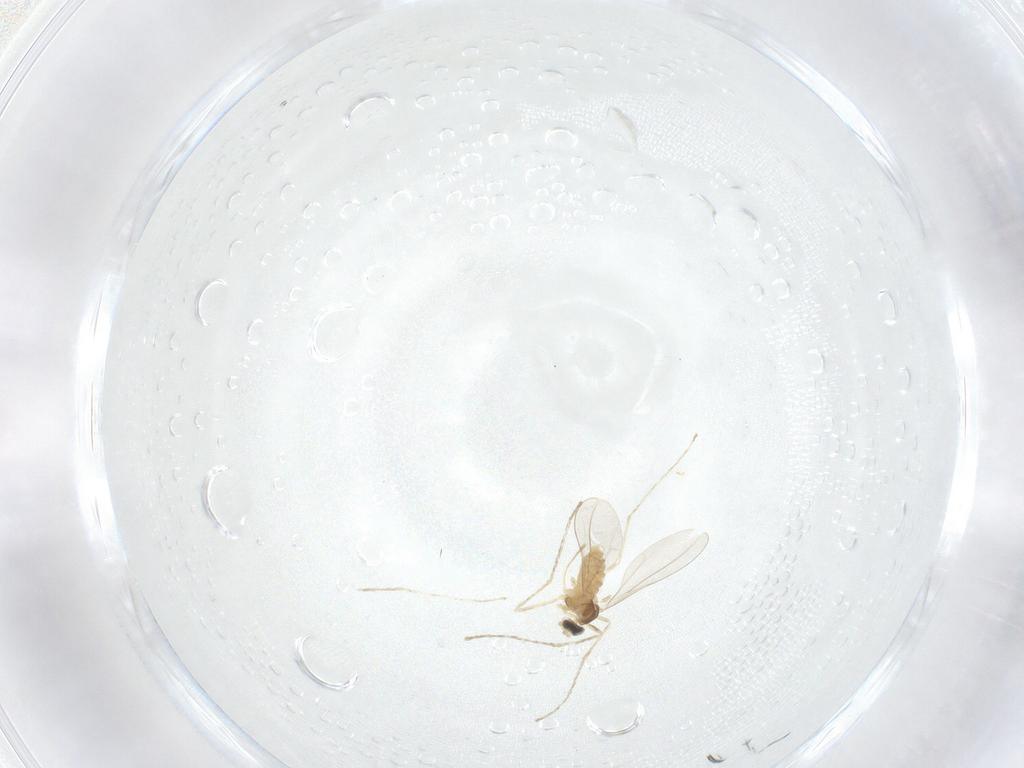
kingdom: Animalia
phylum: Arthropoda
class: Insecta
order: Diptera
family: Cecidomyiidae
